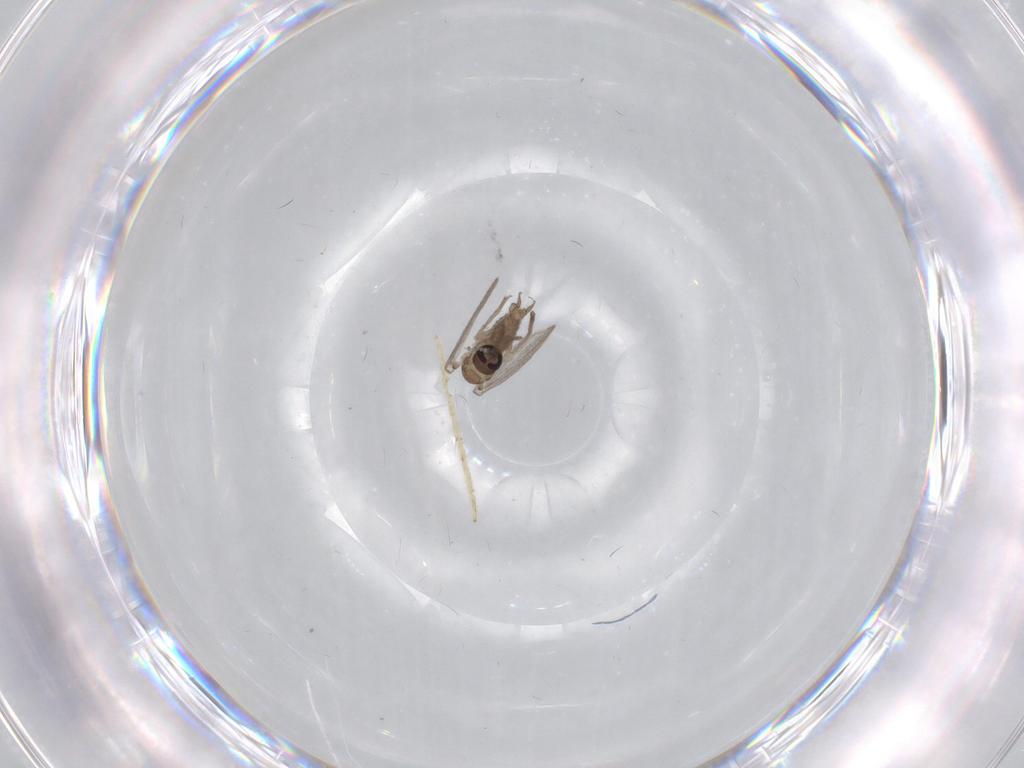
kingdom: Animalia
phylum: Arthropoda
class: Insecta
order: Diptera
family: Psychodidae
